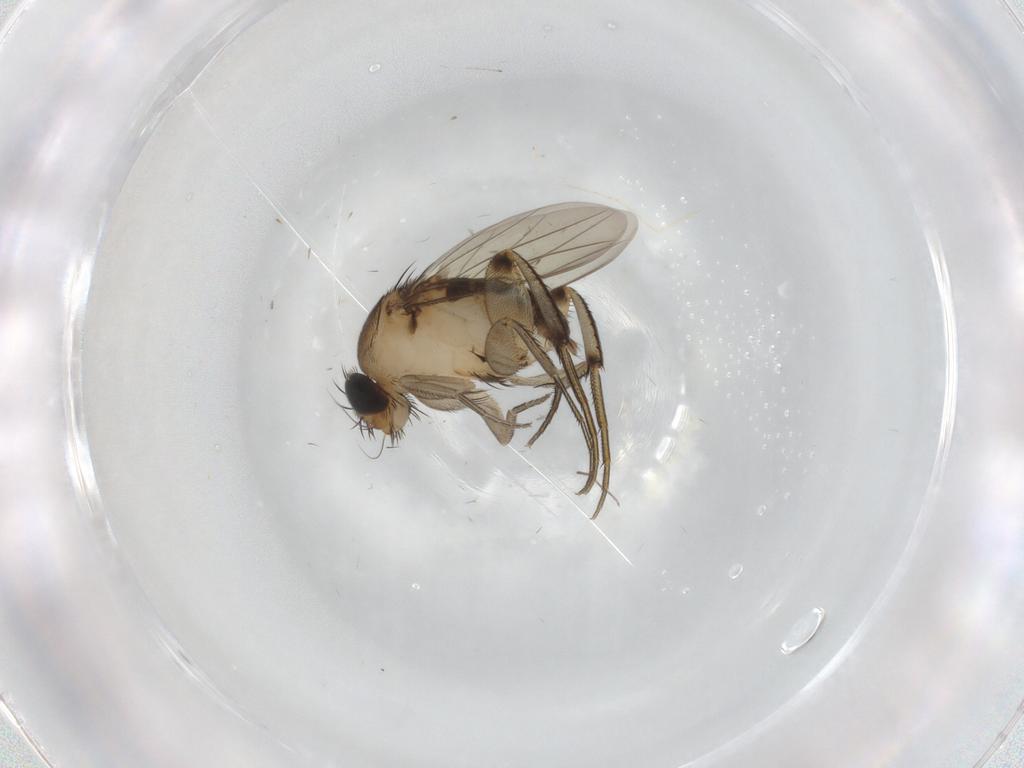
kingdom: Animalia
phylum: Arthropoda
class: Insecta
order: Diptera
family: Phoridae
